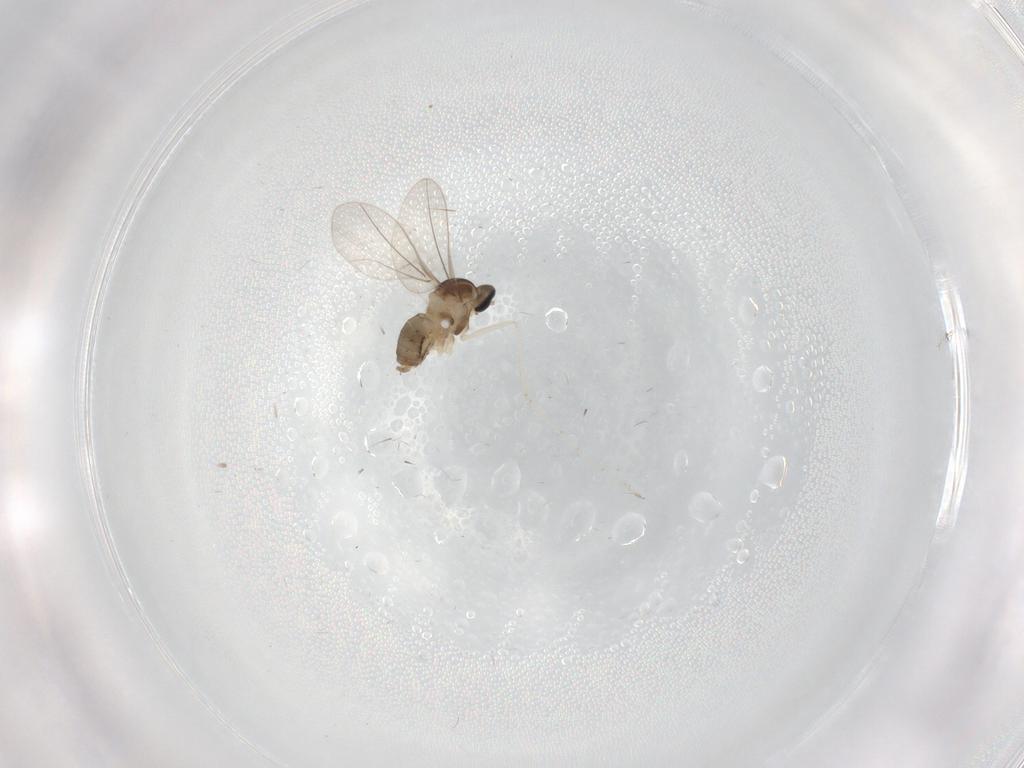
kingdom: Animalia
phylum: Arthropoda
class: Insecta
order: Diptera
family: Cecidomyiidae
